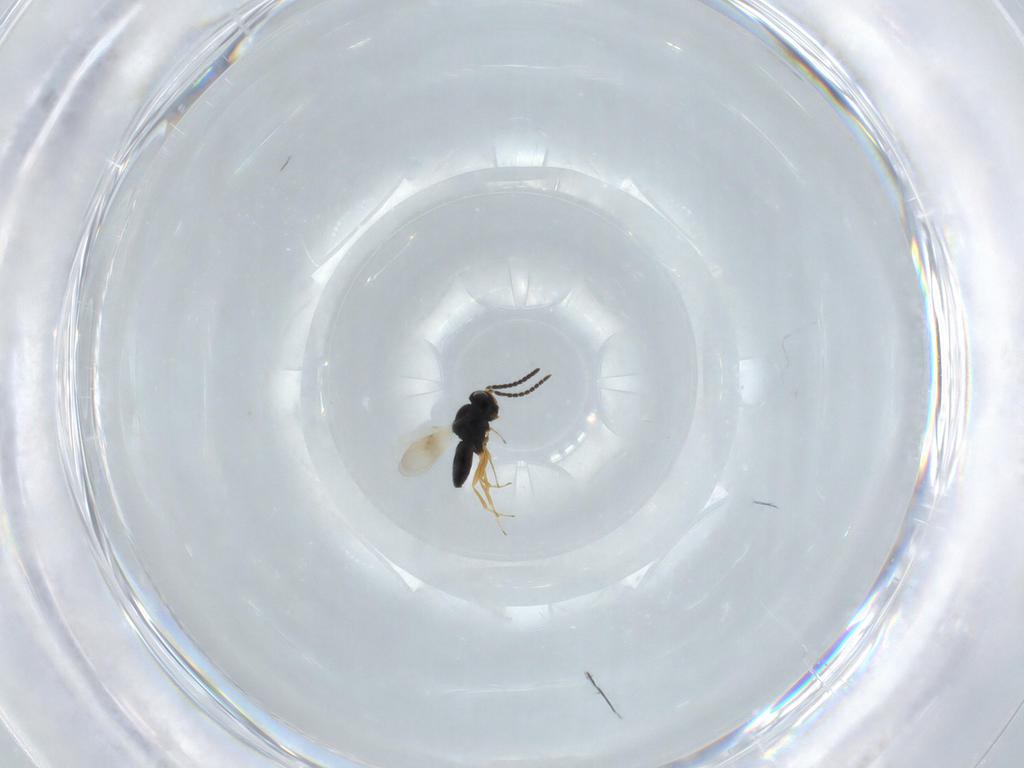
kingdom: Animalia
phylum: Arthropoda
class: Insecta
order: Hymenoptera
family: Scelionidae
